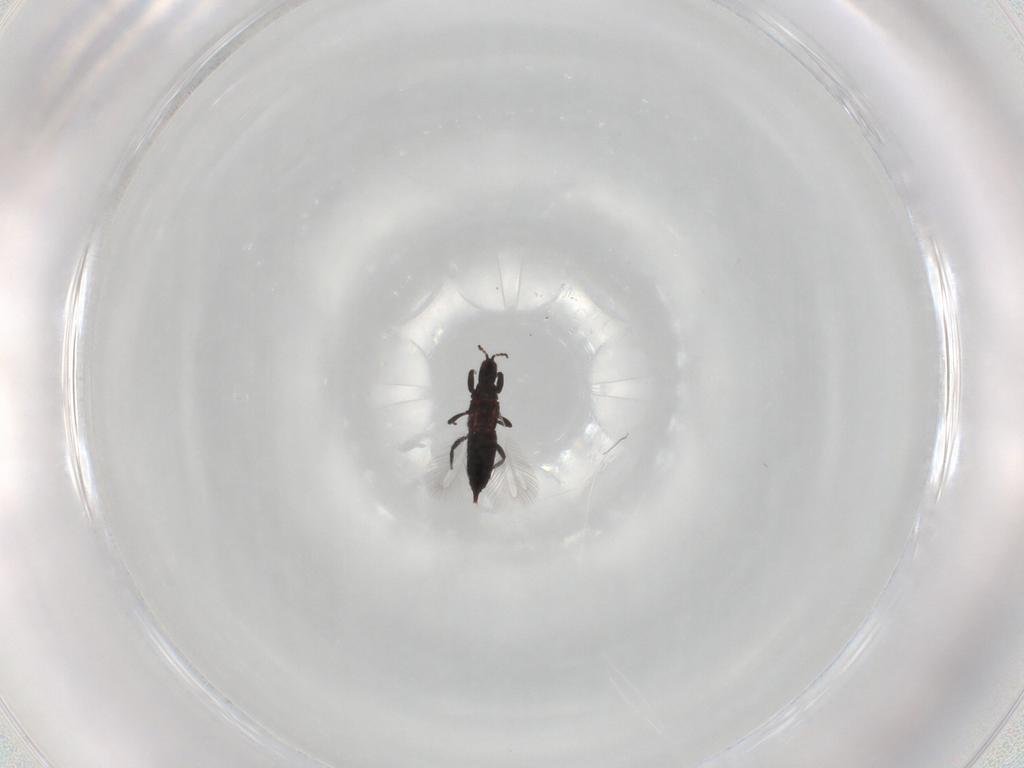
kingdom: Animalia
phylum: Arthropoda
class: Insecta
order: Thysanoptera
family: Phlaeothripidae
